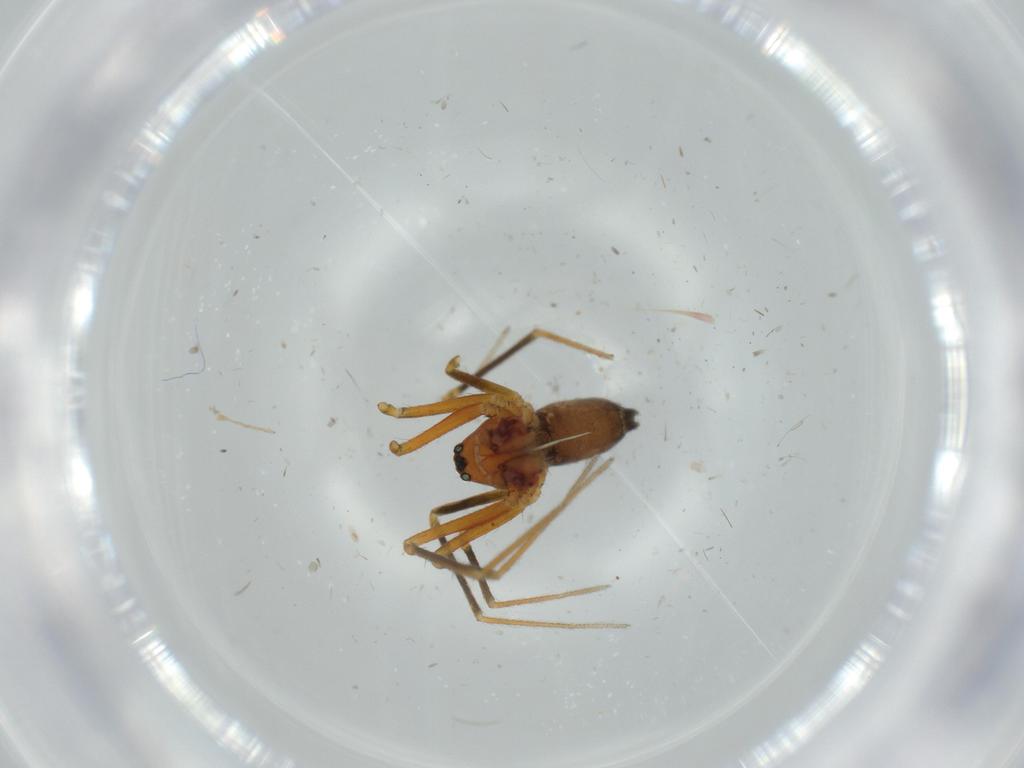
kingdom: Animalia
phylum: Arthropoda
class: Arachnida
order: Araneae
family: Linyphiidae
